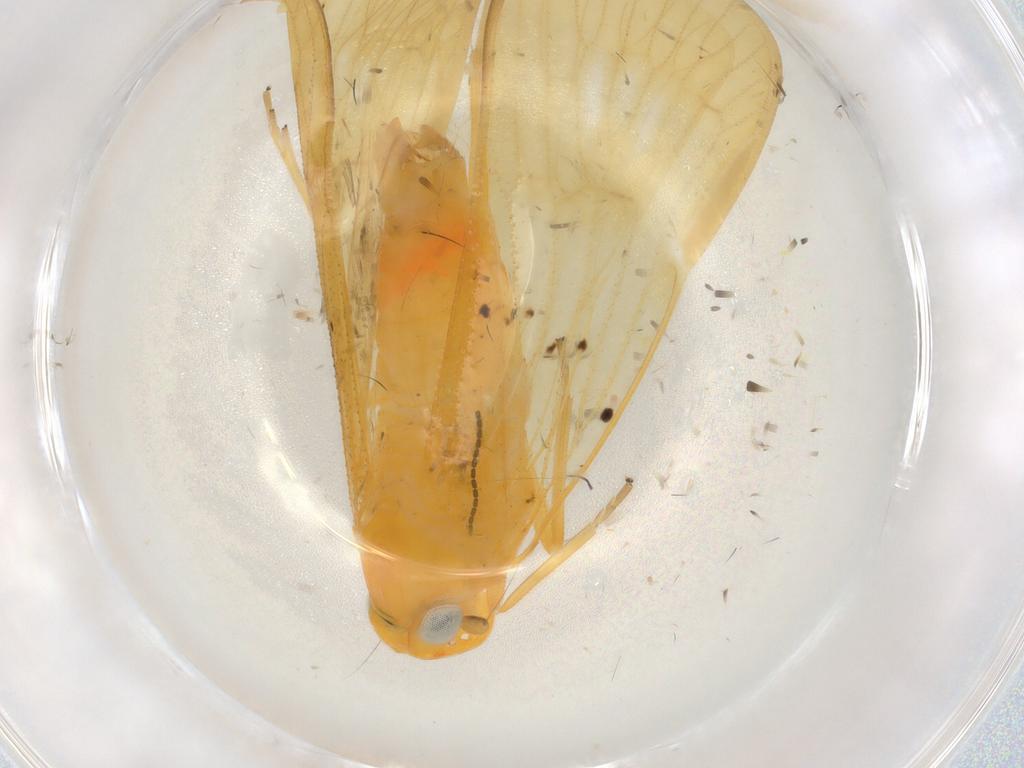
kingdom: Animalia
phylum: Arthropoda
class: Insecta
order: Hemiptera
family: Cixiidae
